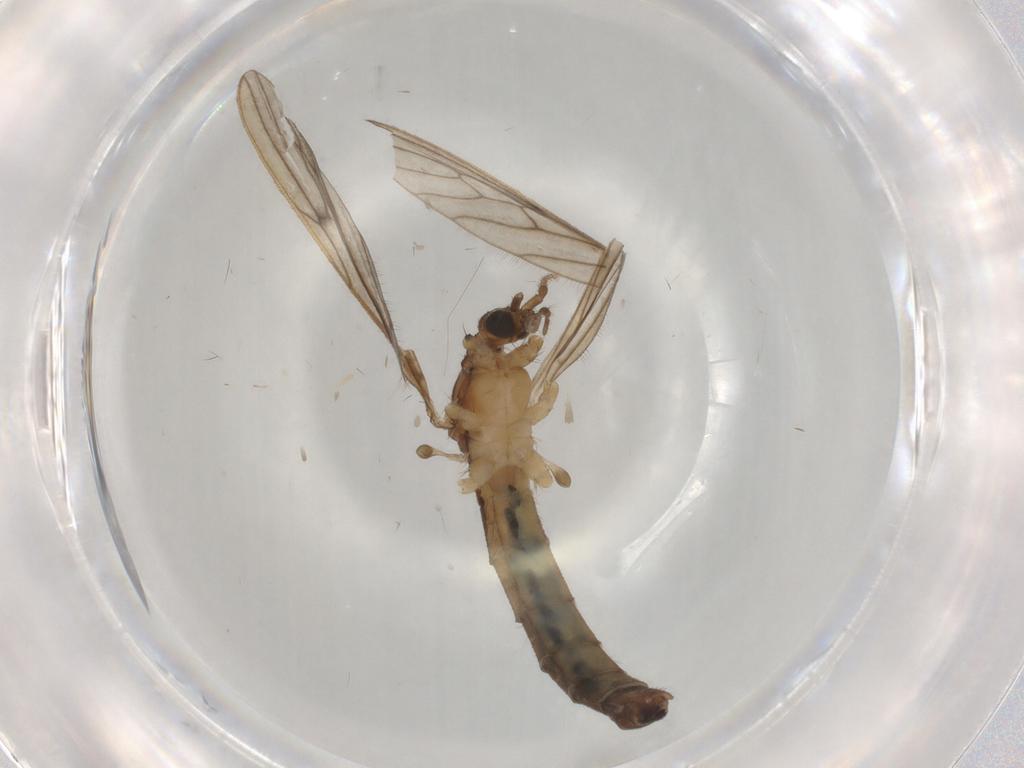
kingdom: Animalia
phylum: Arthropoda
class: Insecta
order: Diptera
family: Limoniidae
